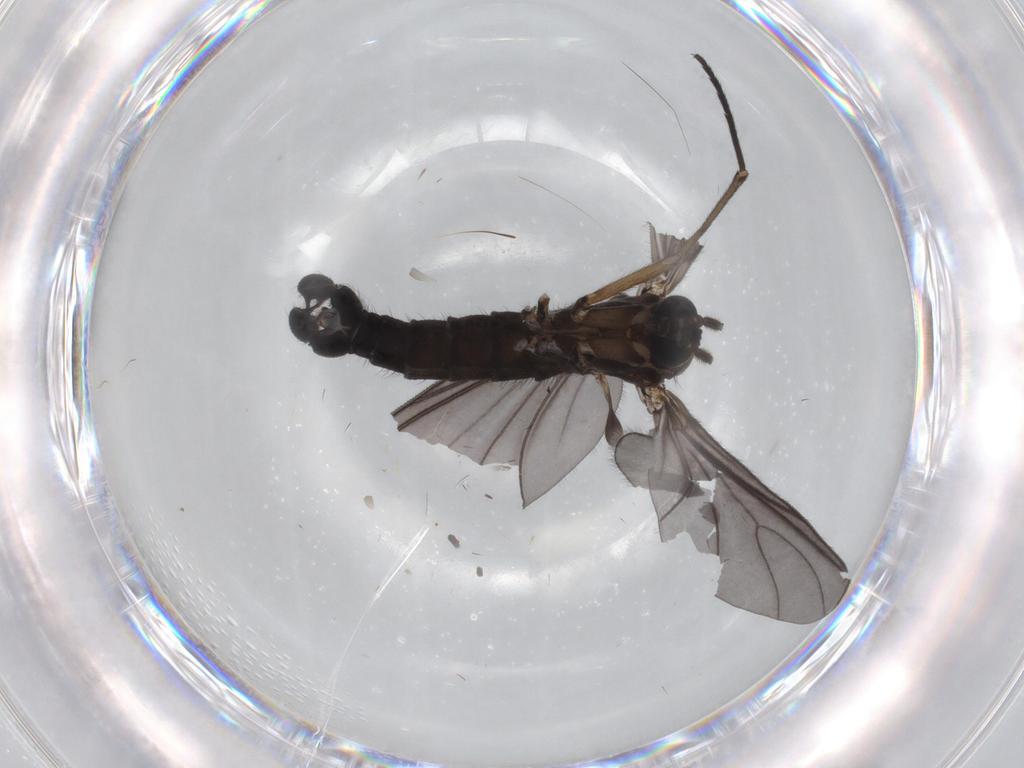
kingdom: Animalia
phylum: Arthropoda
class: Insecta
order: Diptera
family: Sciaridae
